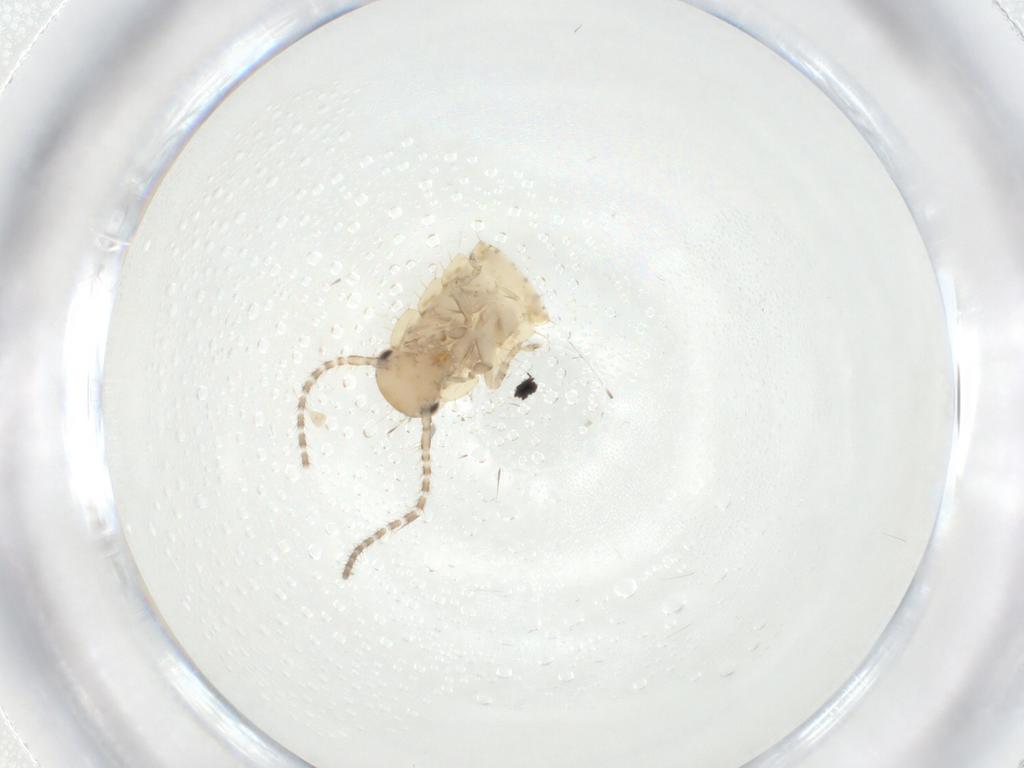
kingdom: Animalia
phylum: Arthropoda
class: Insecta
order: Blattodea
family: Ectobiidae
